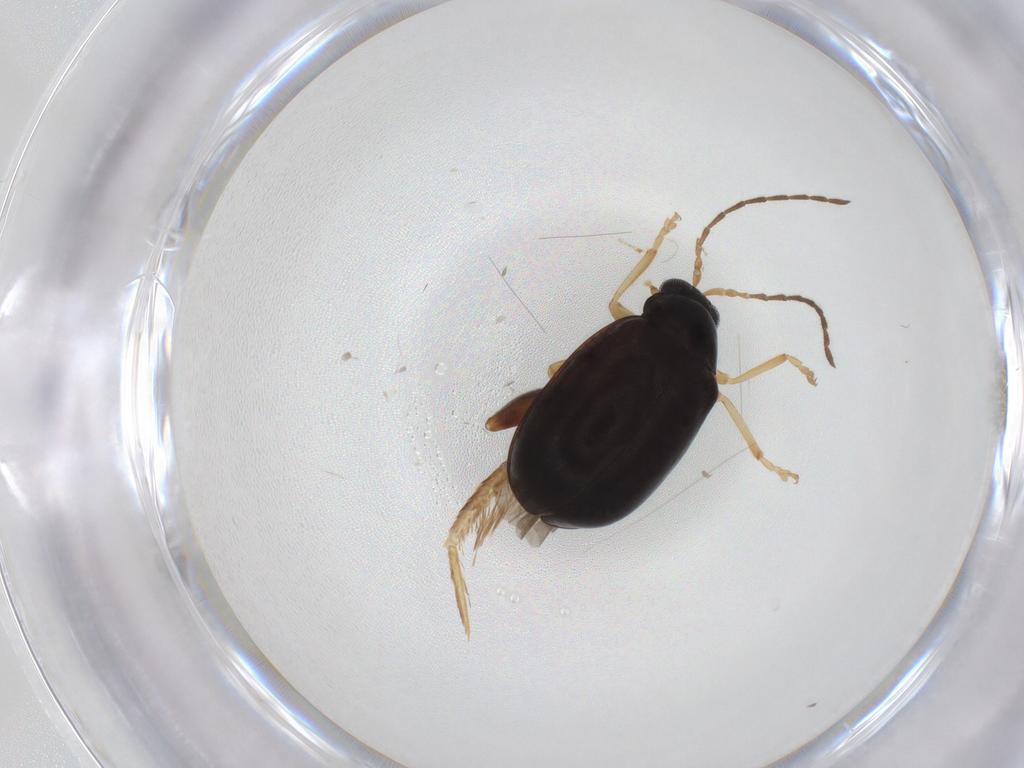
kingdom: Animalia
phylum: Arthropoda
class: Insecta
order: Coleoptera
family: Chrysomelidae
